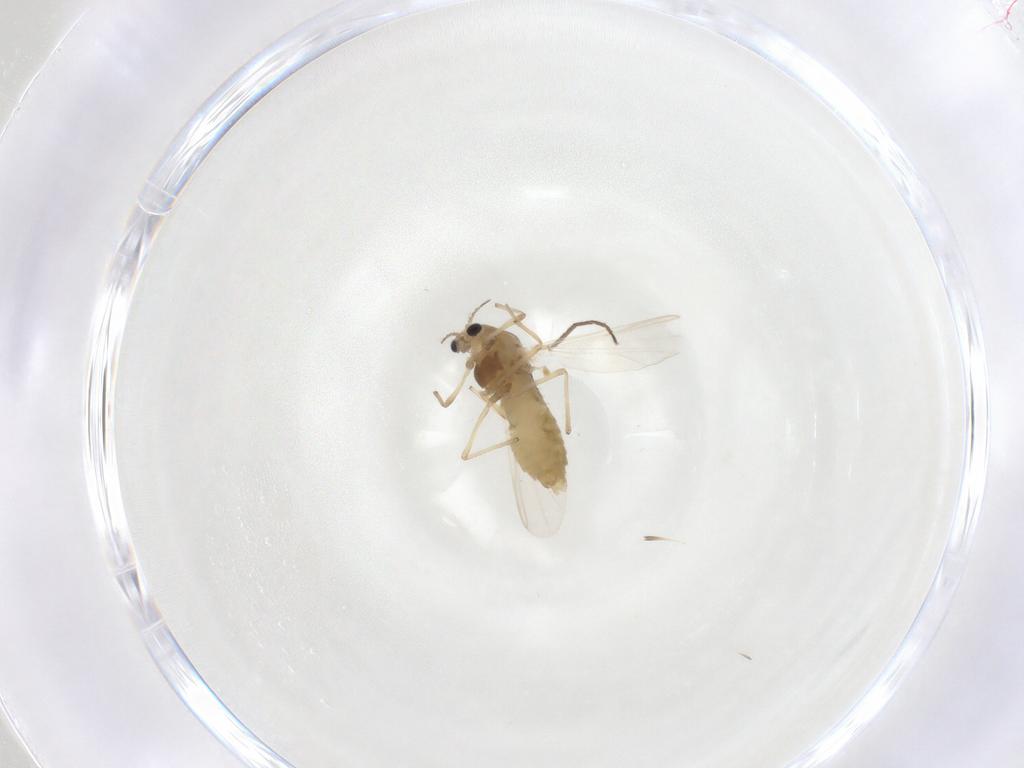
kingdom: Animalia
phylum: Arthropoda
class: Insecta
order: Diptera
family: Chironomidae
